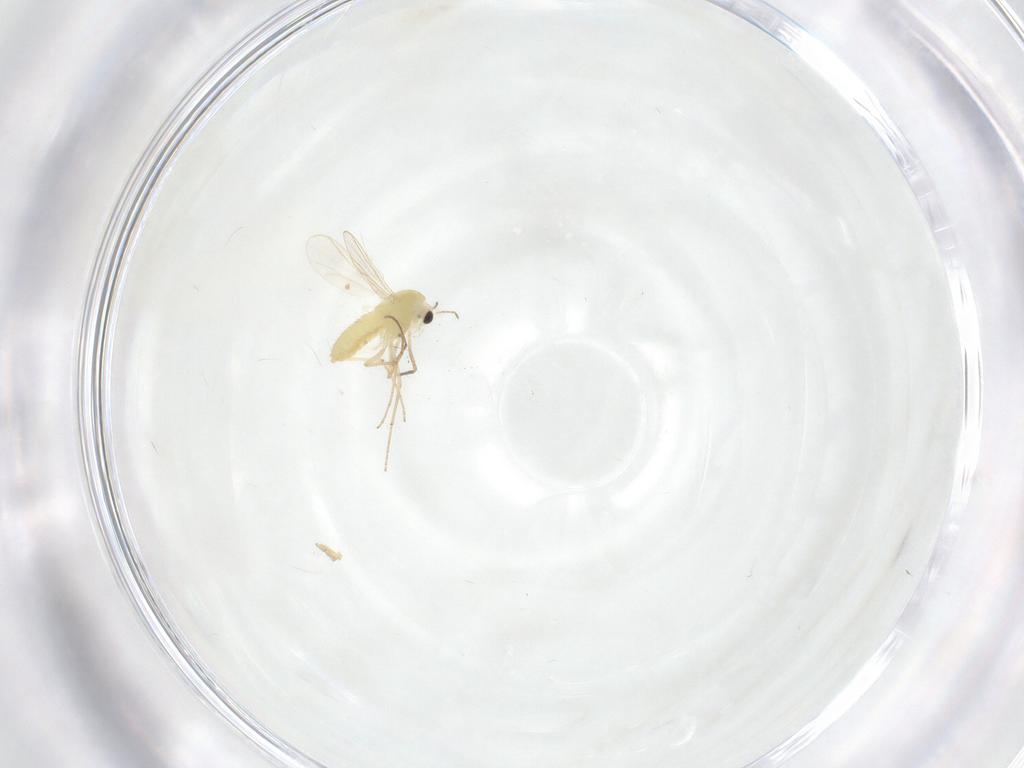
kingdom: Animalia
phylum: Arthropoda
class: Insecta
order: Diptera
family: Chironomidae
